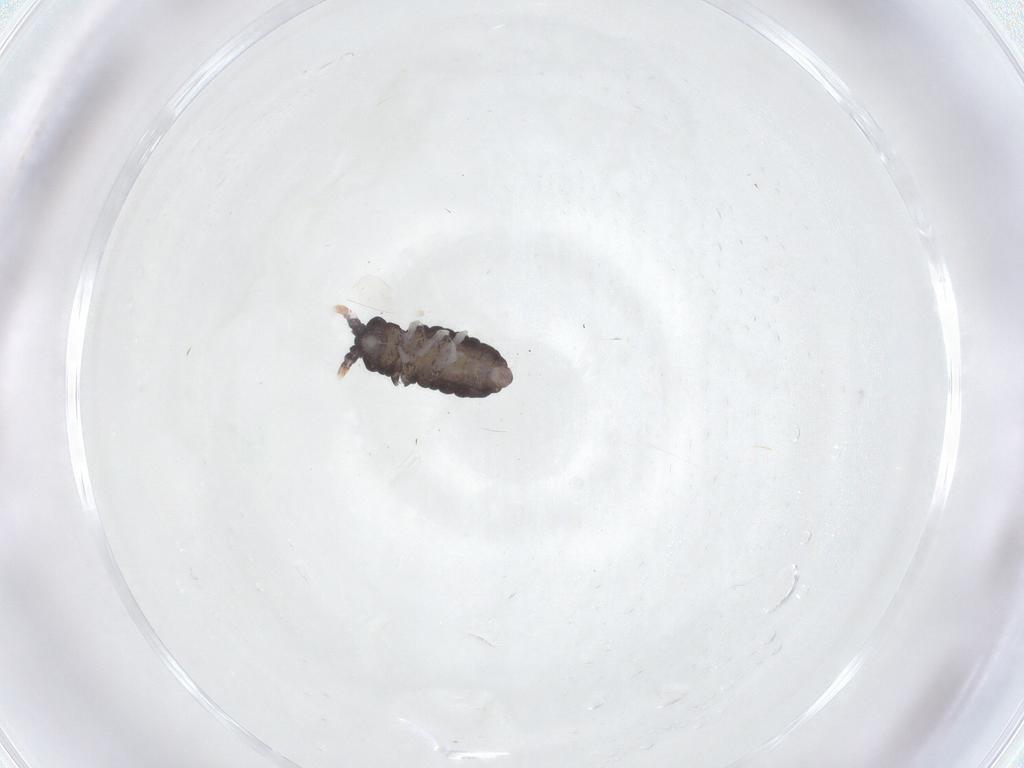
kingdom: Animalia
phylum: Arthropoda
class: Collembola
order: Poduromorpha
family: Neanuridae
